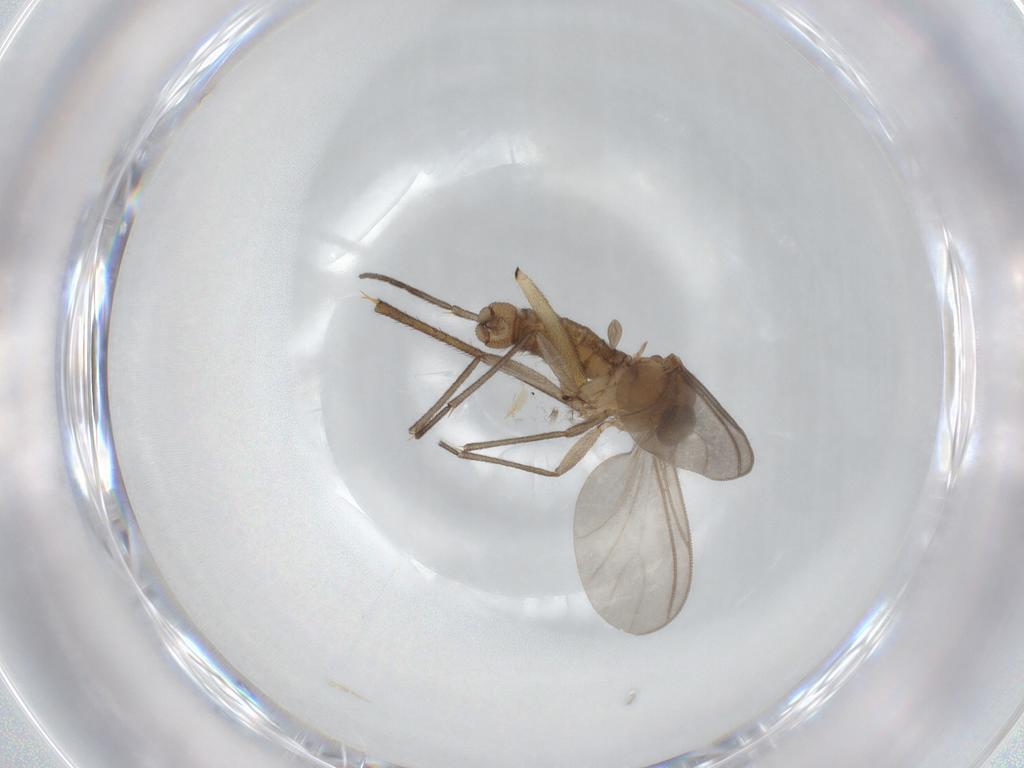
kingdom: Animalia
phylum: Arthropoda
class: Insecta
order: Diptera
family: Sciaridae
